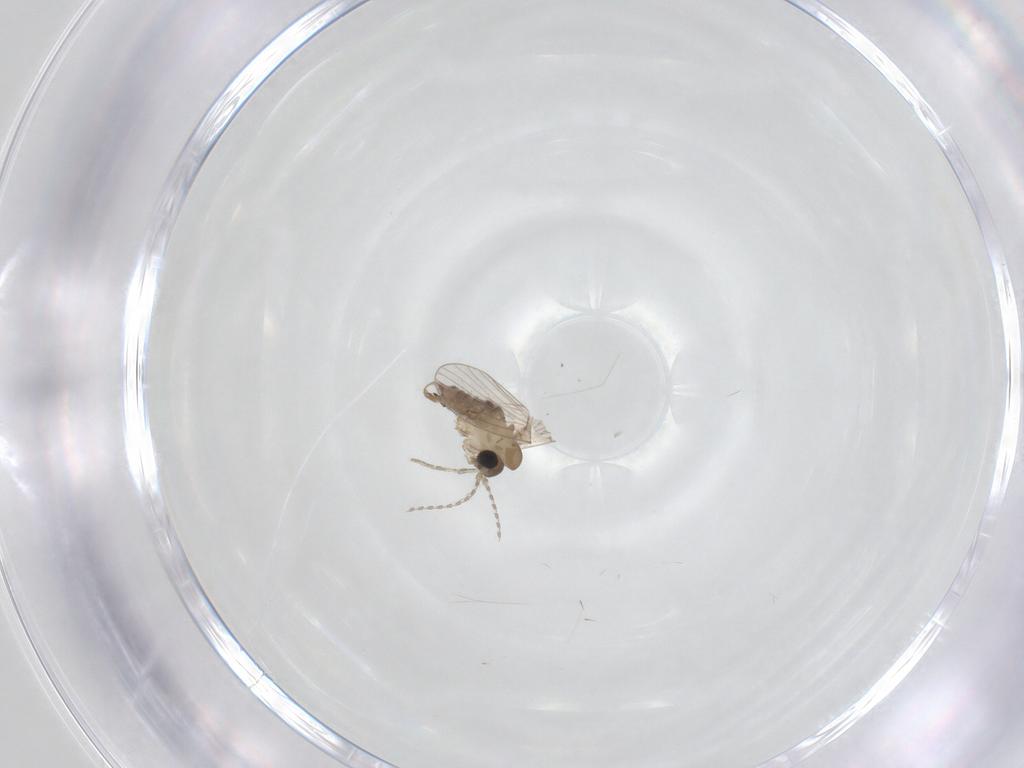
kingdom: Animalia
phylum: Arthropoda
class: Insecta
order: Diptera
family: Psychodidae
